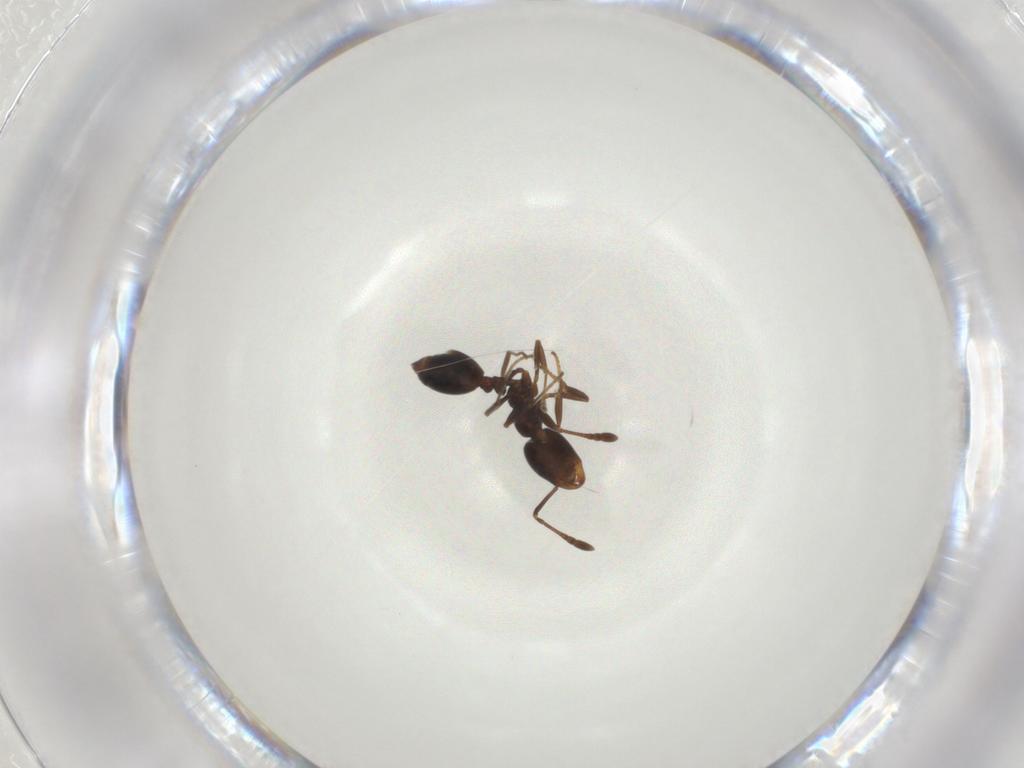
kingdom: Animalia
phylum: Arthropoda
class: Insecta
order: Hymenoptera
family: Formicidae
